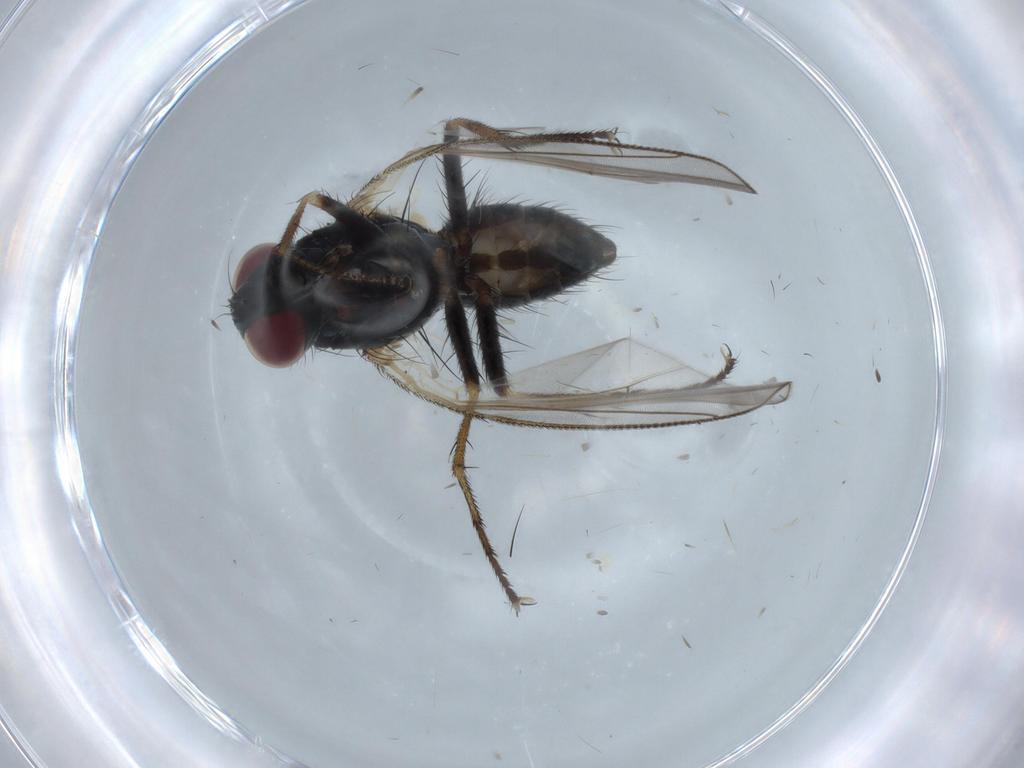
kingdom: Animalia
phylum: Arthropoda
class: Insecta
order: Diptera
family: Muscidae
